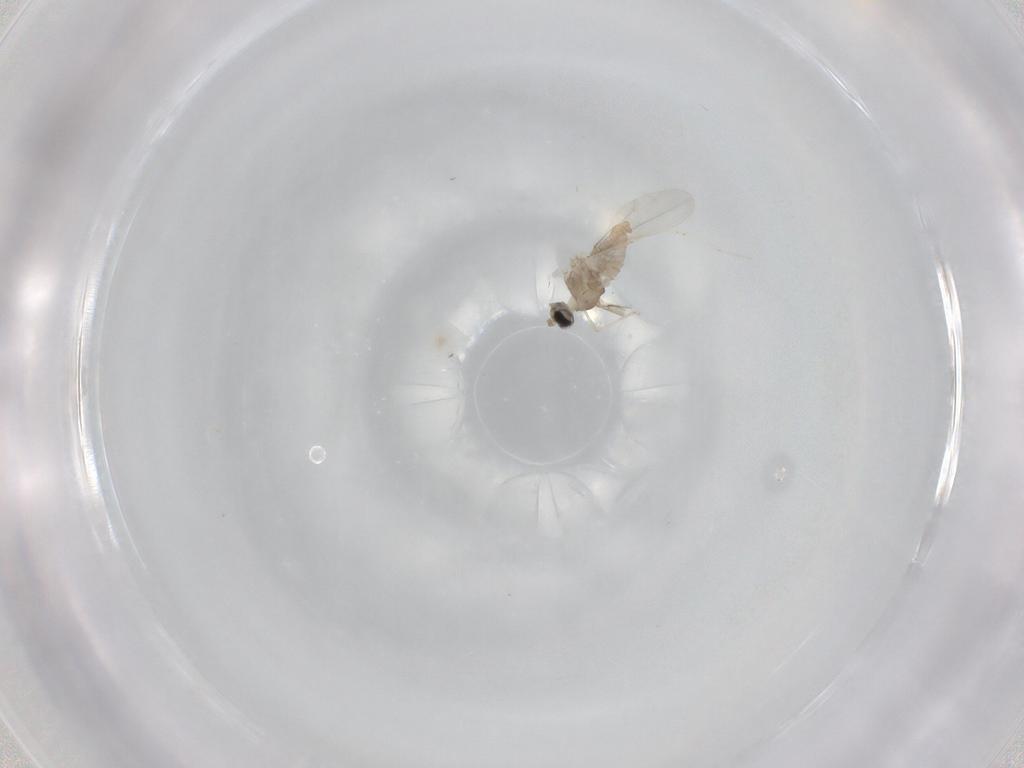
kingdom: Animalia
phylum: Arthropoda
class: Insecta
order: Diptera
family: Cecidomyiidae
